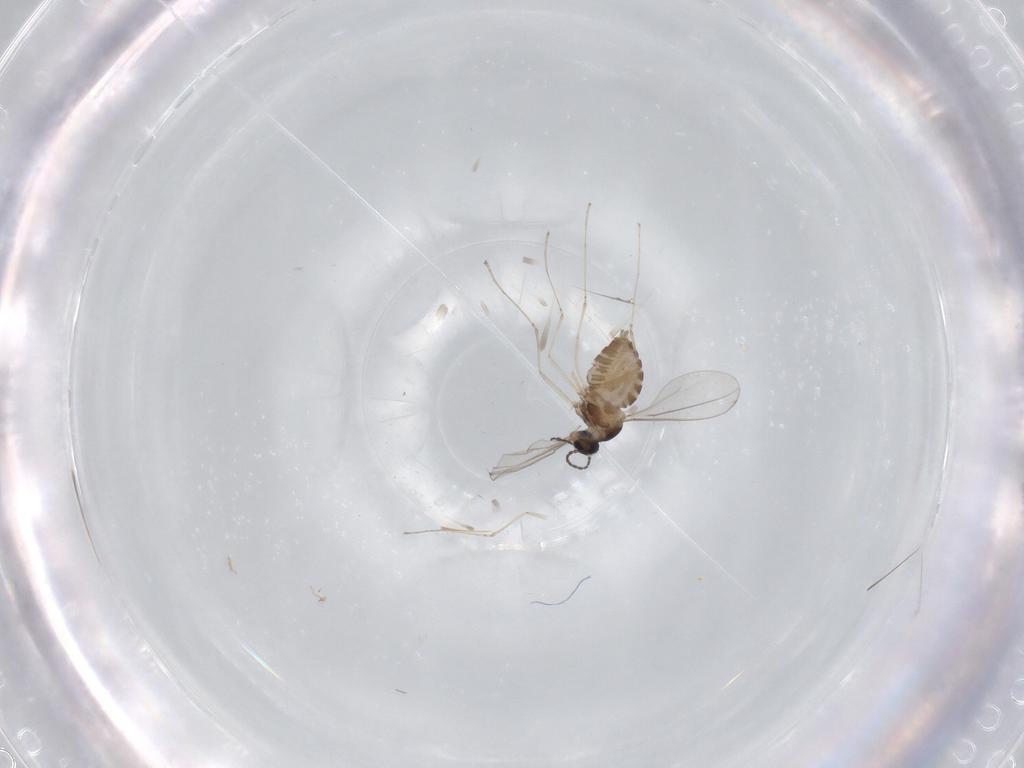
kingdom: Animalia
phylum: Arthropoda
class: Insecta
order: Diptera
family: Cecidomyiidae
